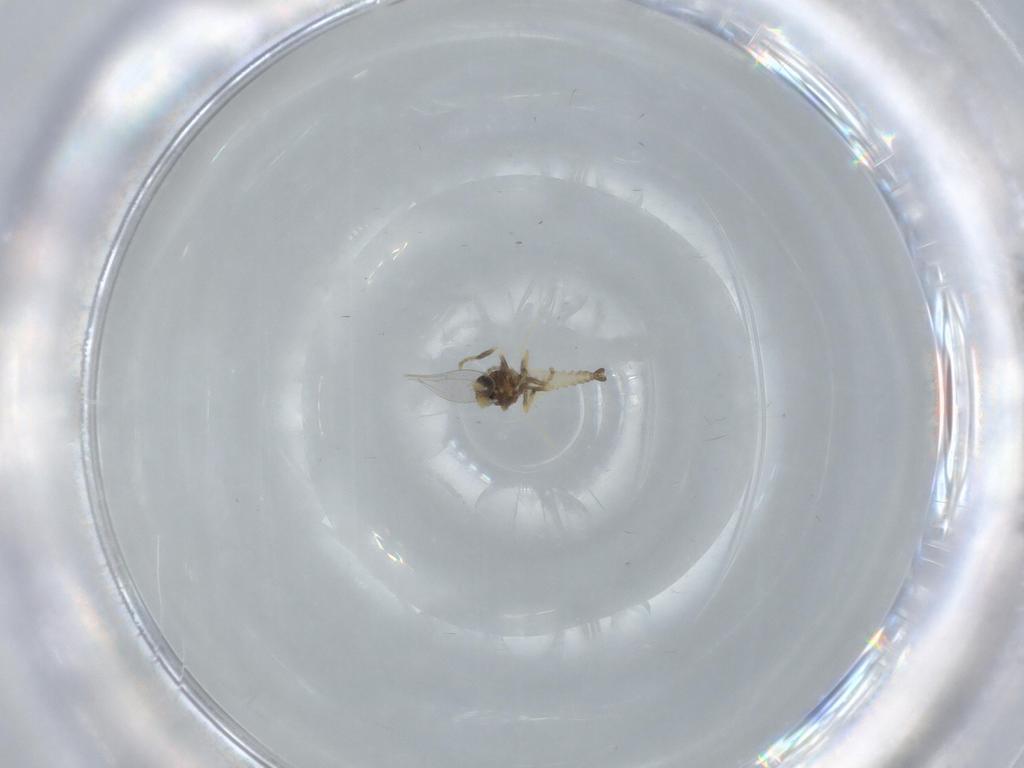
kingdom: Animalia
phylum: Arthropoda
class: Insecta
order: Diptera
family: Ceratopogonidae
